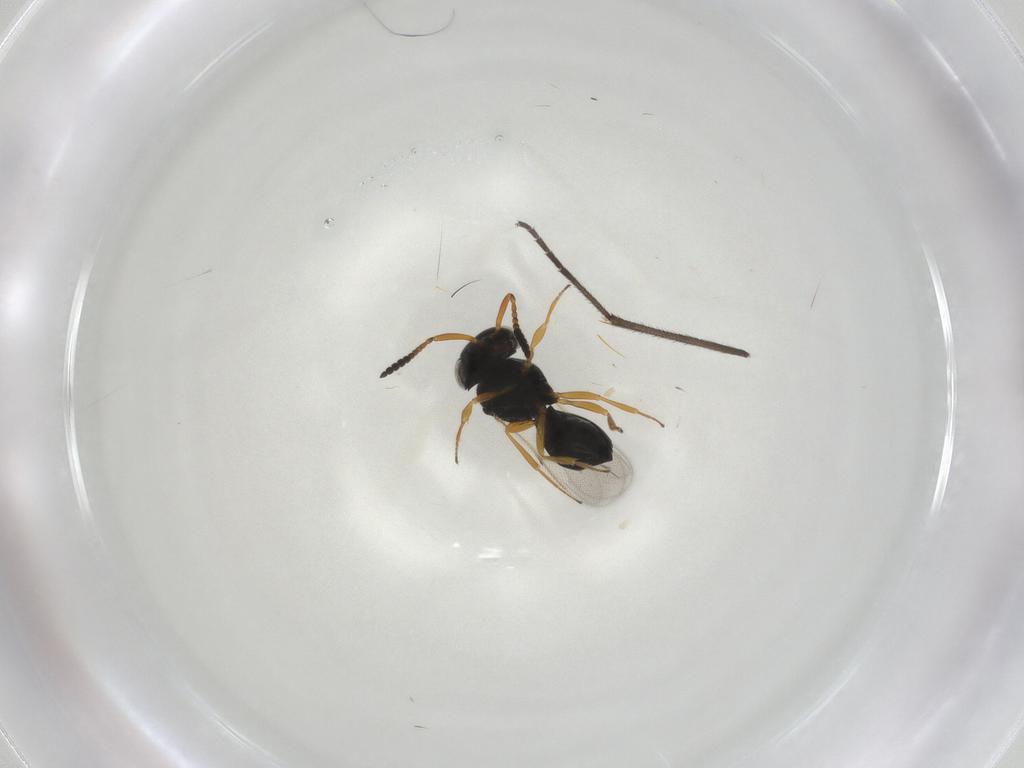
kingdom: Animalia
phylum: Arthropoda
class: Insecta
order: Hymenoptera
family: Scelionidae
